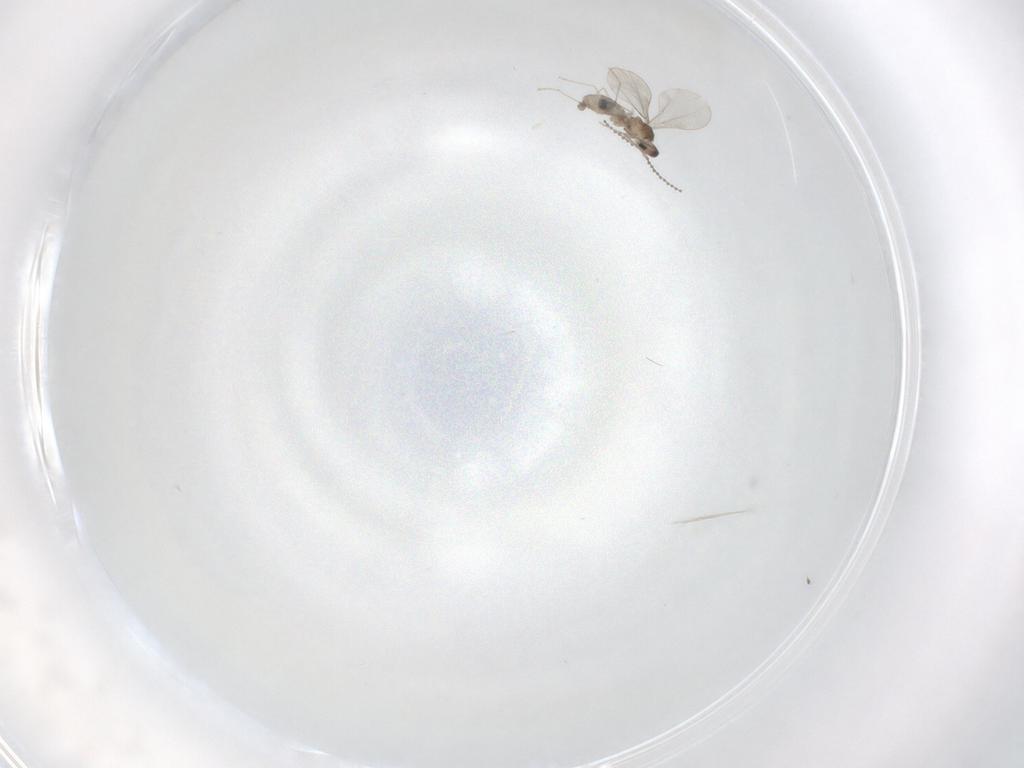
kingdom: Animalia
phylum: Arthropoda
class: Insecta
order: Diptera
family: Cecidomyiidae
